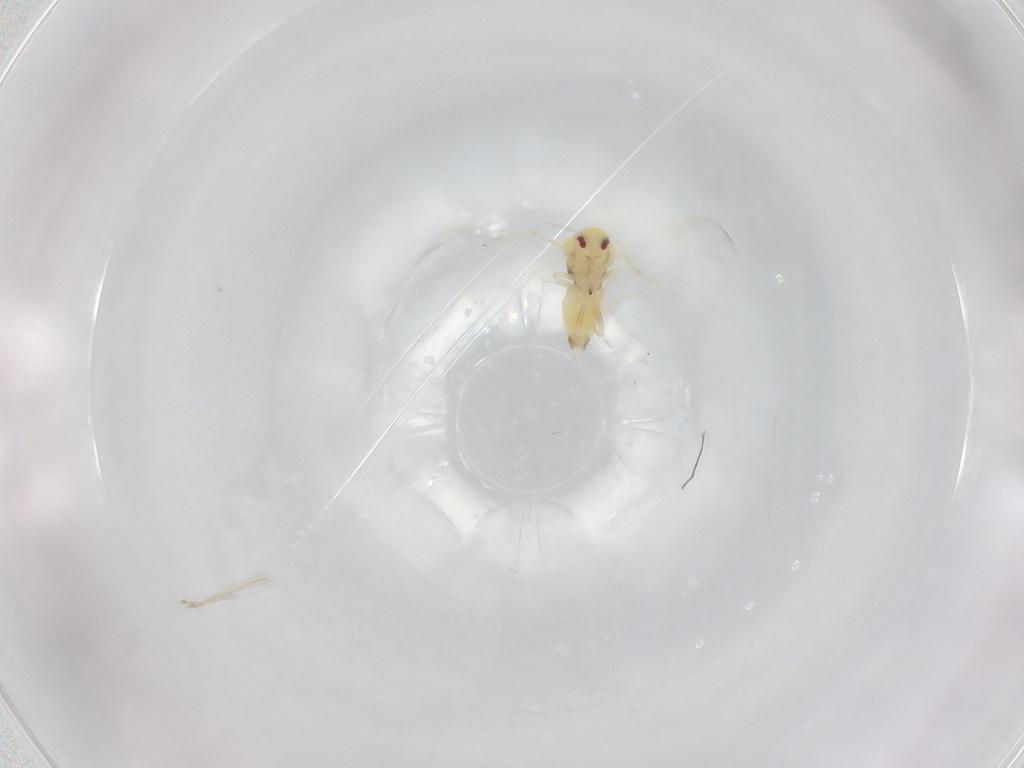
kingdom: Animalia
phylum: Arthropoda
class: Insecta
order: Hemiptera
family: Aleyrodidae
